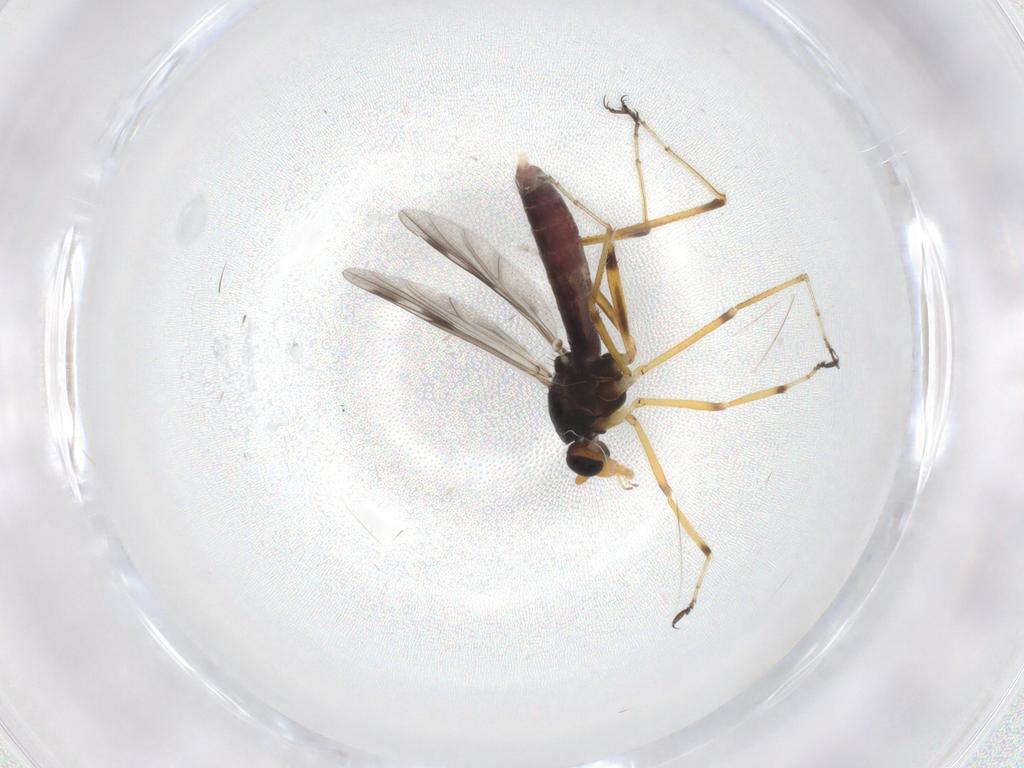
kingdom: Animalia
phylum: Arthropoda
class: Insecta
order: Diptera
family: Ceratopogonidae
